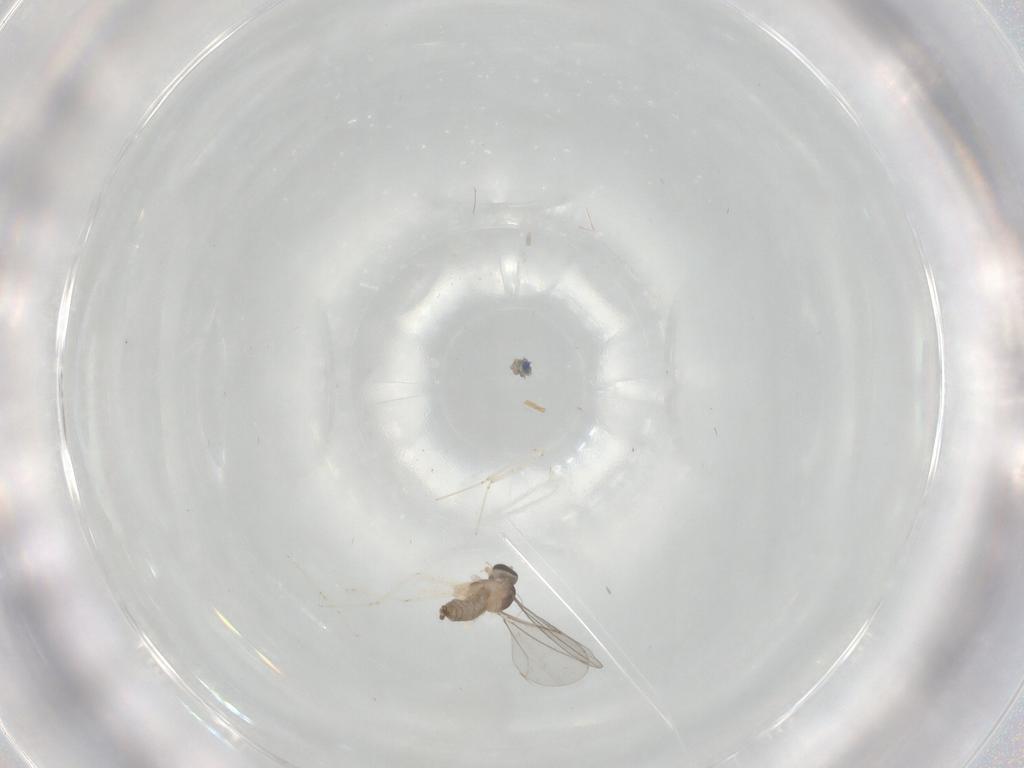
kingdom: Animalia
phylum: Arthropoda
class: Insecta
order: Diptera
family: Cecidomyiidae
